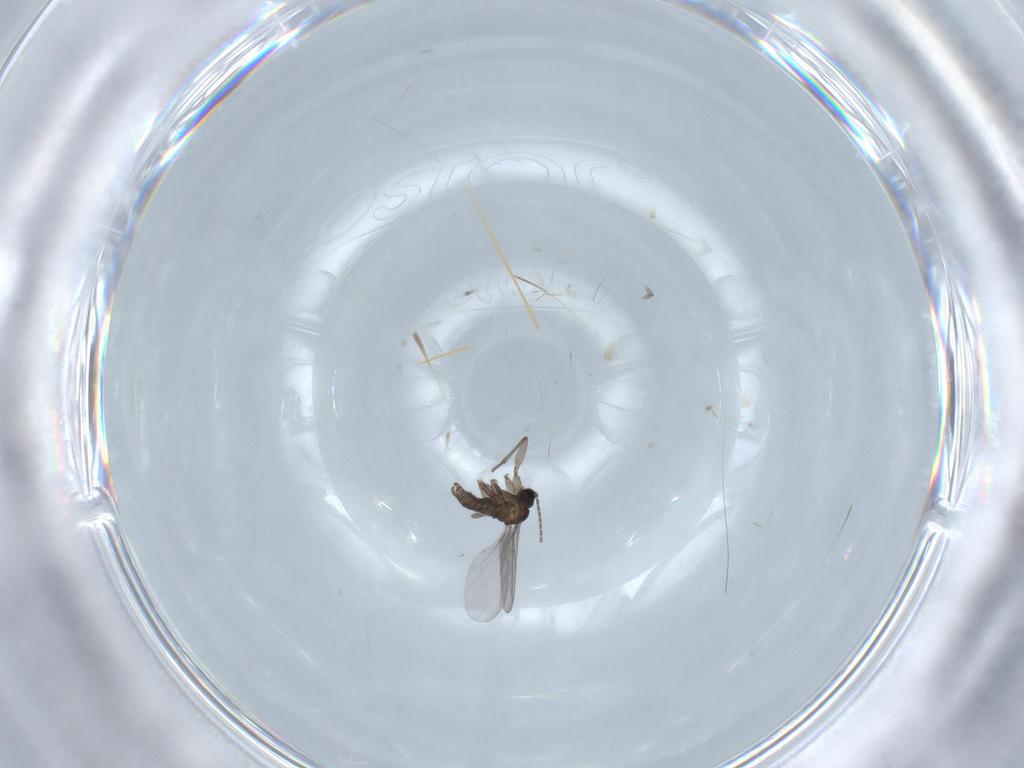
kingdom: Animalia
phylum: Arthropoda
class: Insecta
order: Diptera
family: Sciaridae
